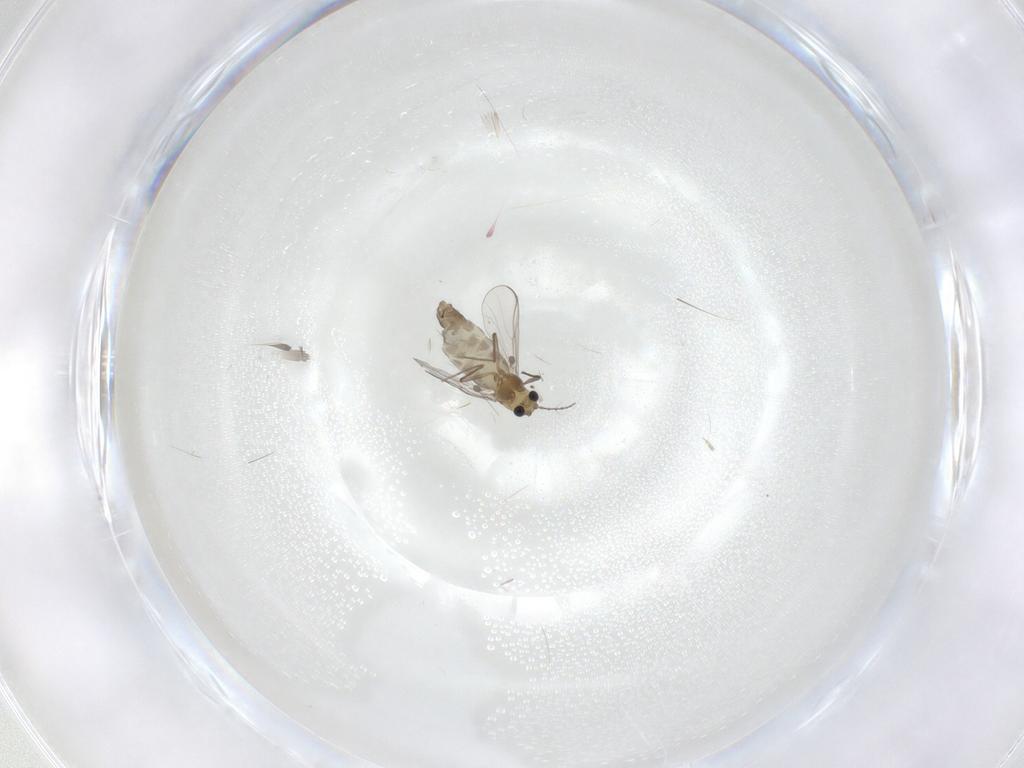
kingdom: Animalia
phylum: Arthropoda
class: Insecta
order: Diptera
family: Chironomidae
